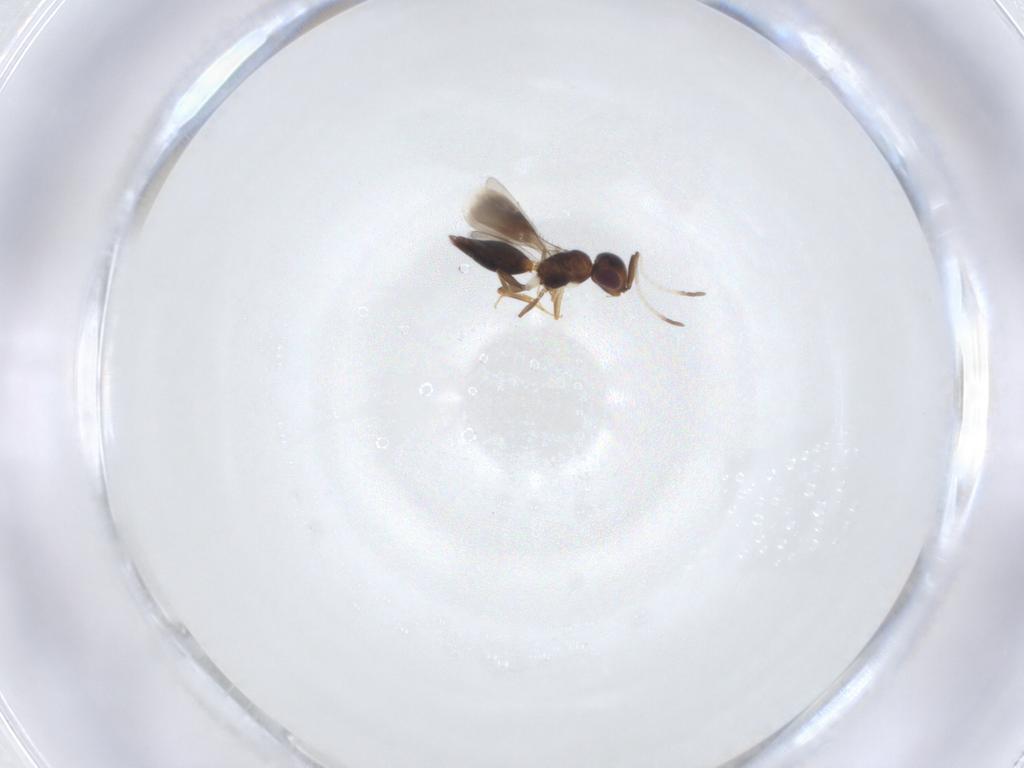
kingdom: Animalia
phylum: Arthropoda
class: Insecta
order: Hymenoptera
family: Megaspilidae
